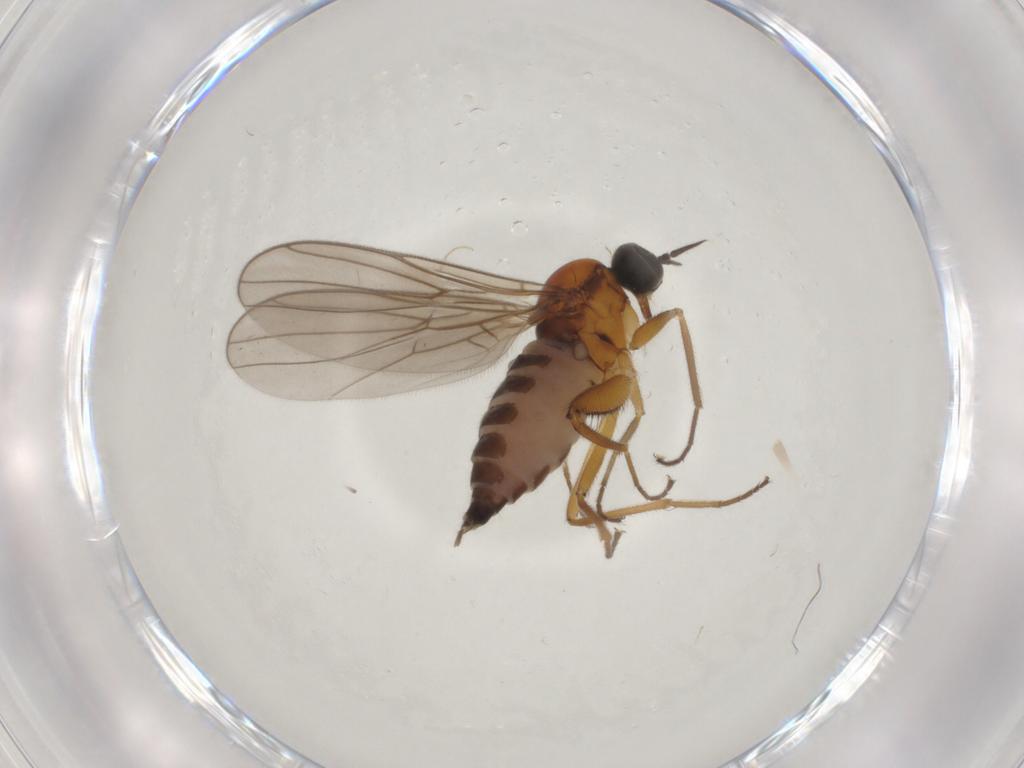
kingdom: Animalia
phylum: Arthropoda
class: Insecta
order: Diptera
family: Hybotidae
